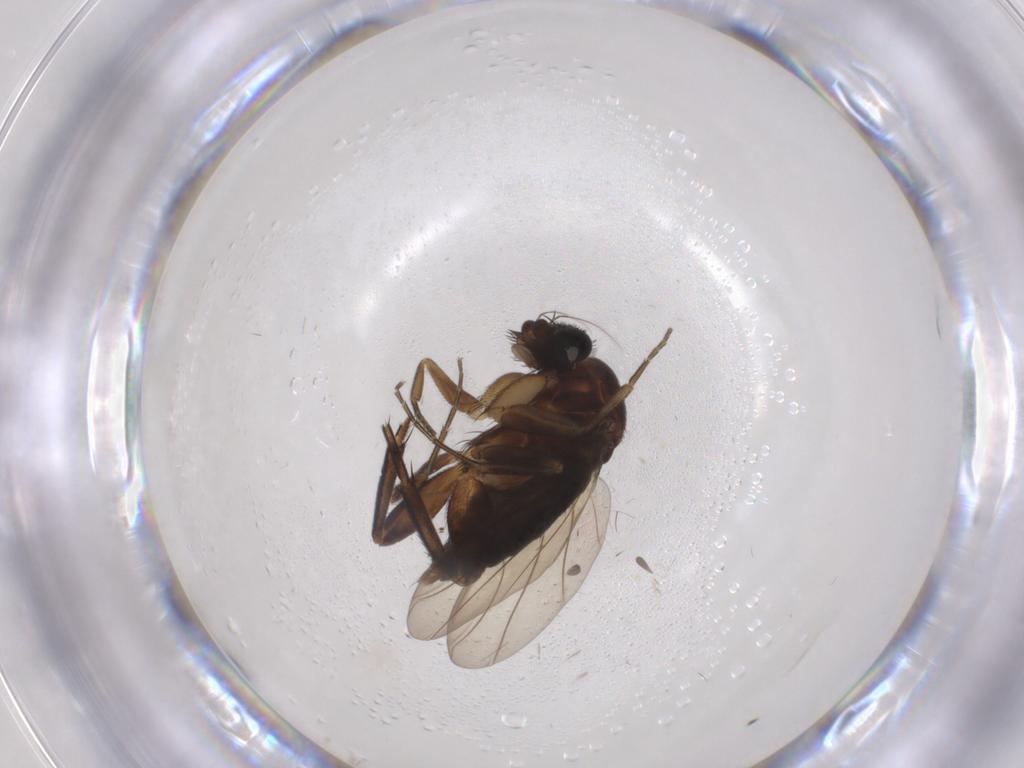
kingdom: Animalia
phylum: Arthropoda
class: Insecta
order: Diptera
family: Phoridae
